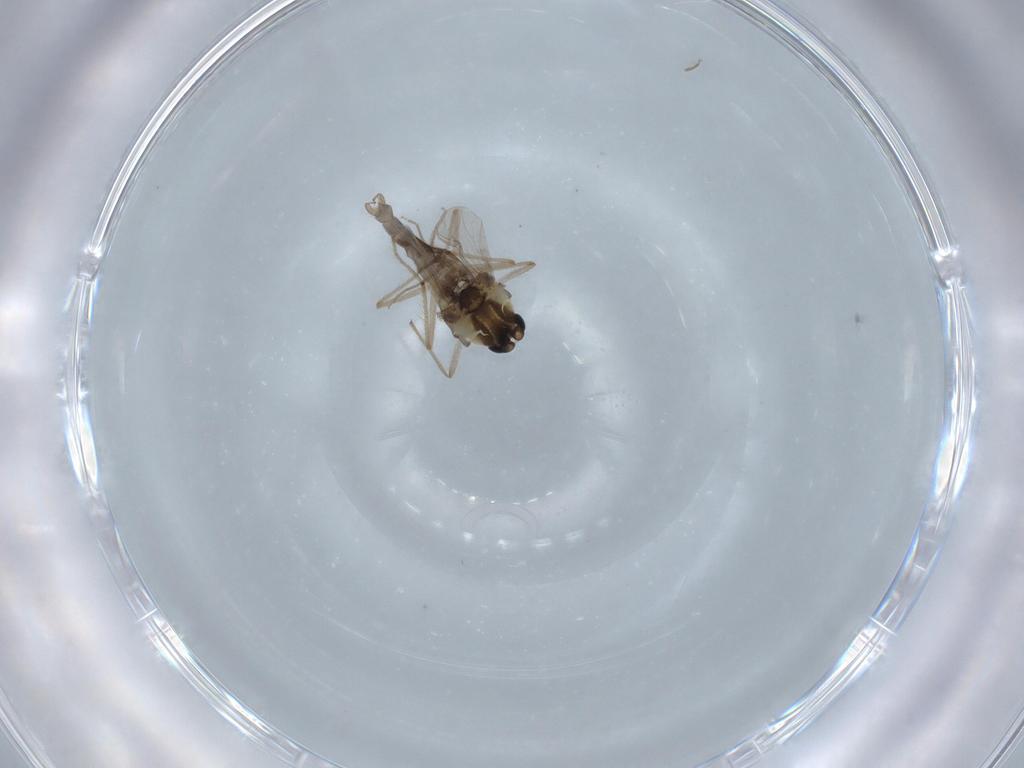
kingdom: Animalia
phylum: Arthropoda
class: Insecta
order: Diptera
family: Chironomidae
